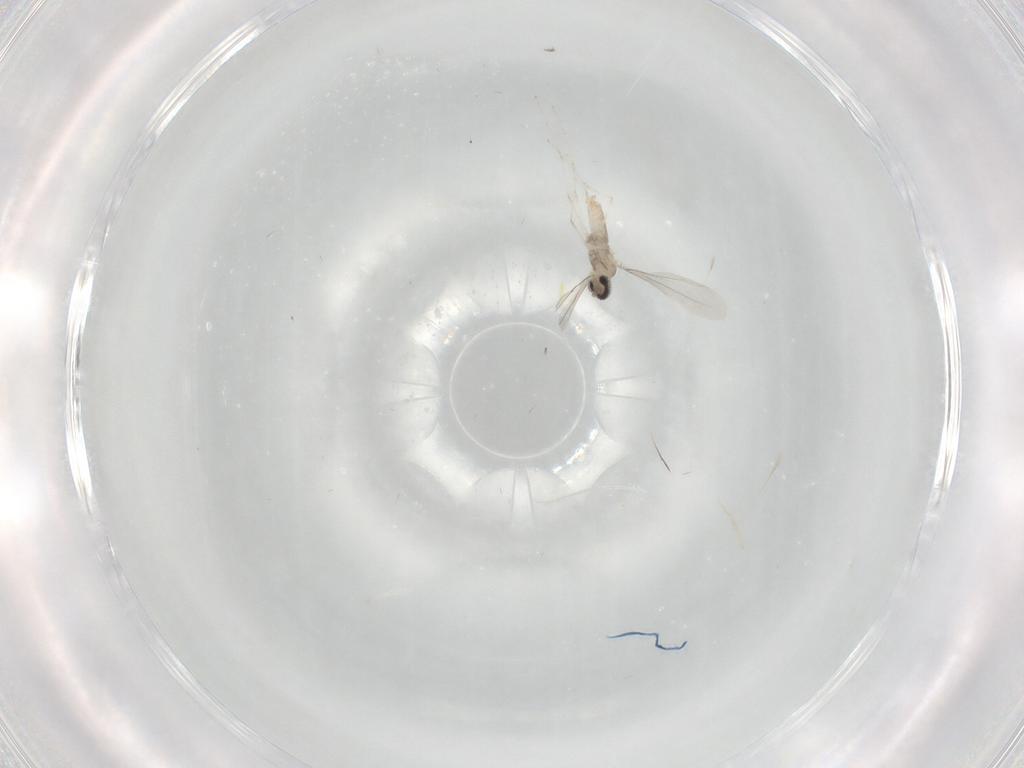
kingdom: Animalia
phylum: Arthropoda
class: Insecta
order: Diptera
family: Cecidomyiidae
